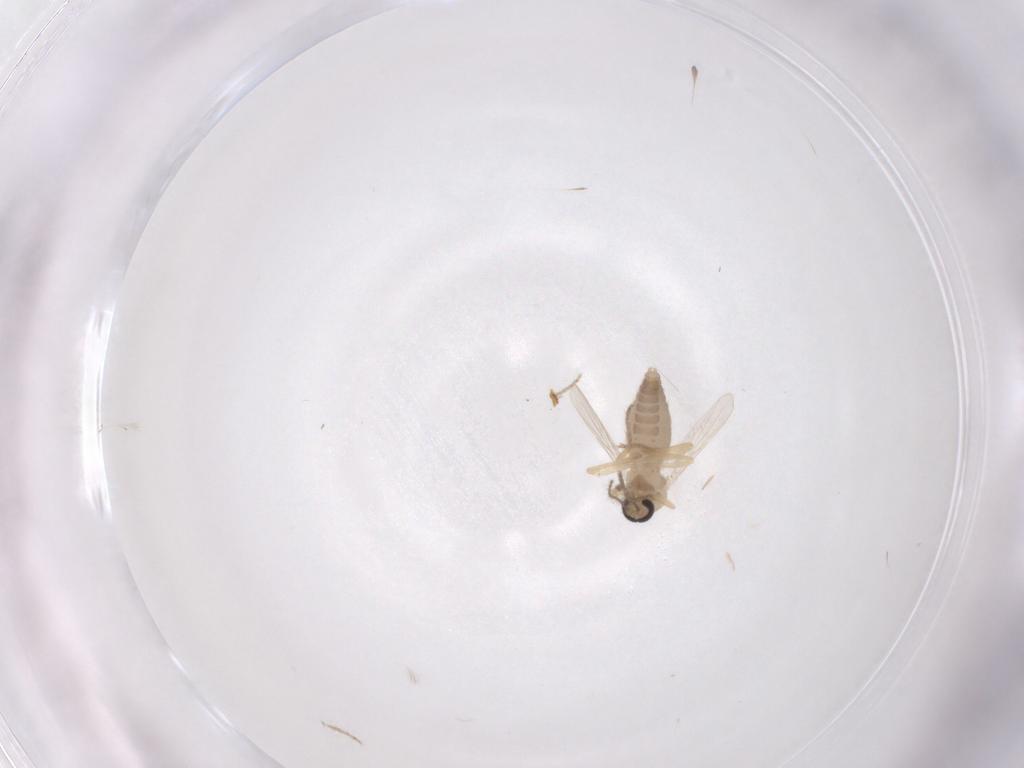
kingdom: Animalia
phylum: Arthropoda
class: Insecta
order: Diptera
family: Ceratopogonidae
